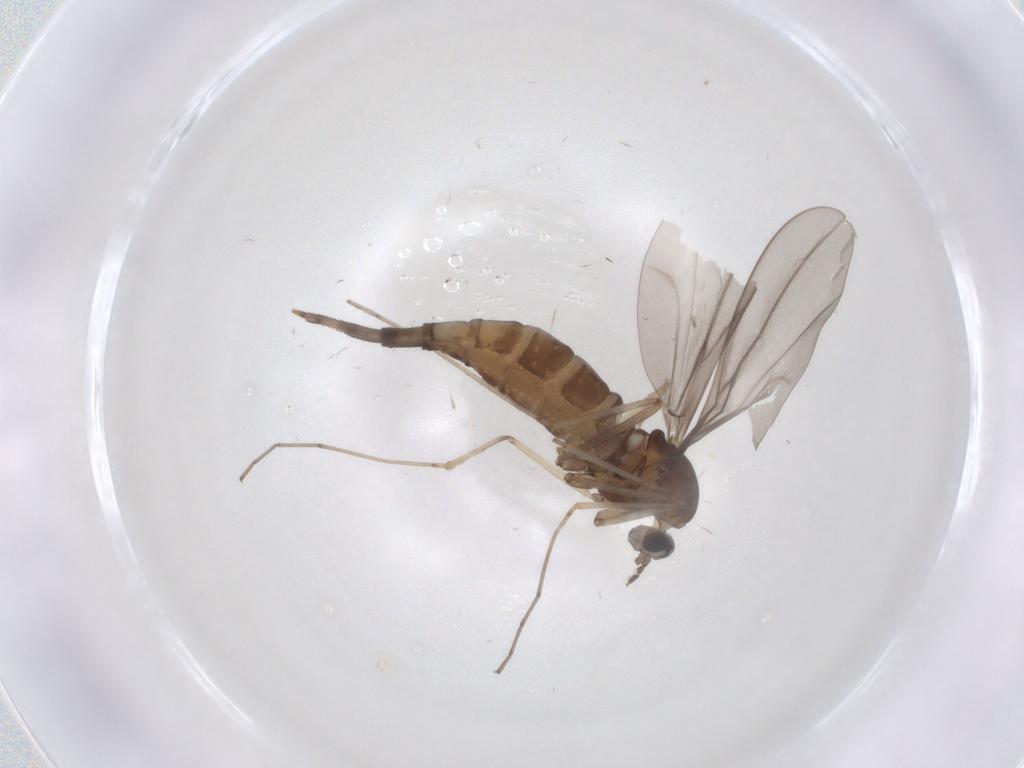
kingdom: Animalia
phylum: Arthropoda
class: Insecta
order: Diptera
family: Cecidomyiidae
